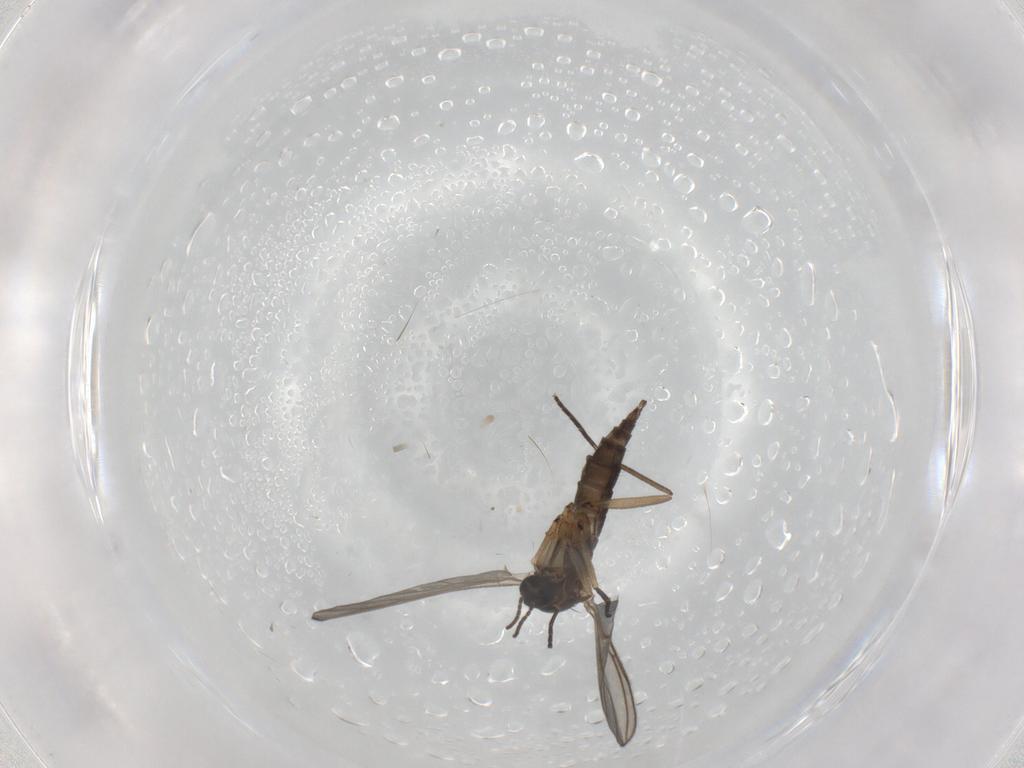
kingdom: Animalia
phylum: Arthropoda
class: Insecta
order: Diptera
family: Sciaridae
